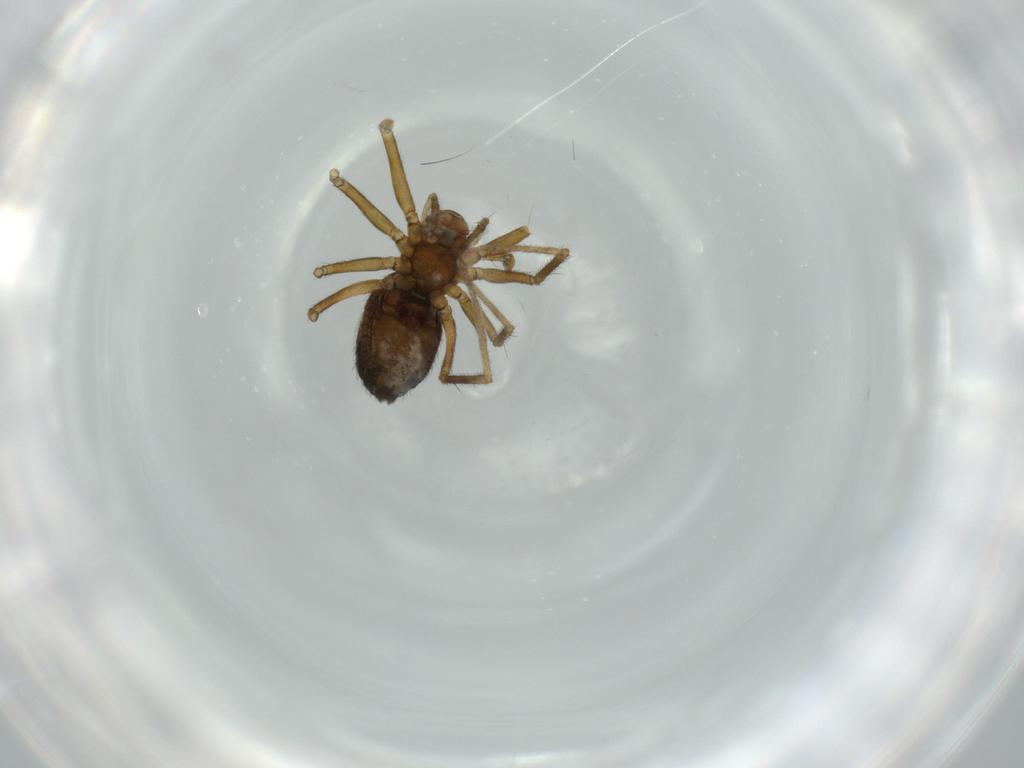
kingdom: Animalia
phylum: Arthropoda
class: Arachnida
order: Araneae
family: Linyphiidae
